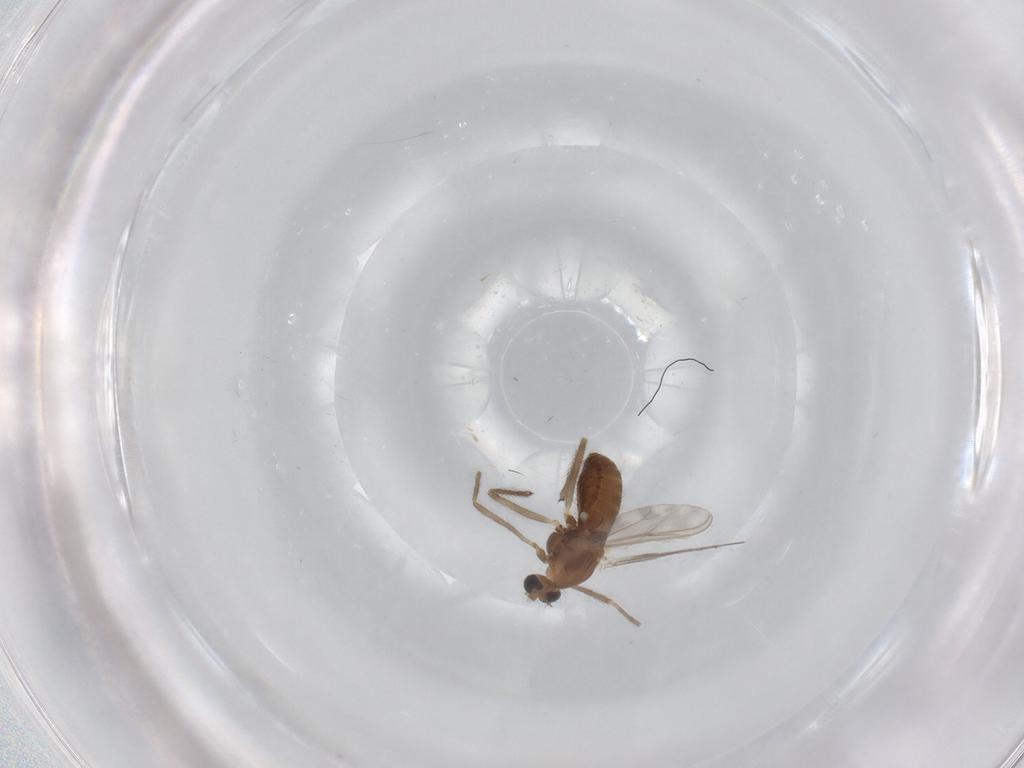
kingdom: Animalia
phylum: Arthropoda
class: Insecta
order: Diptera
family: Chironomidae
